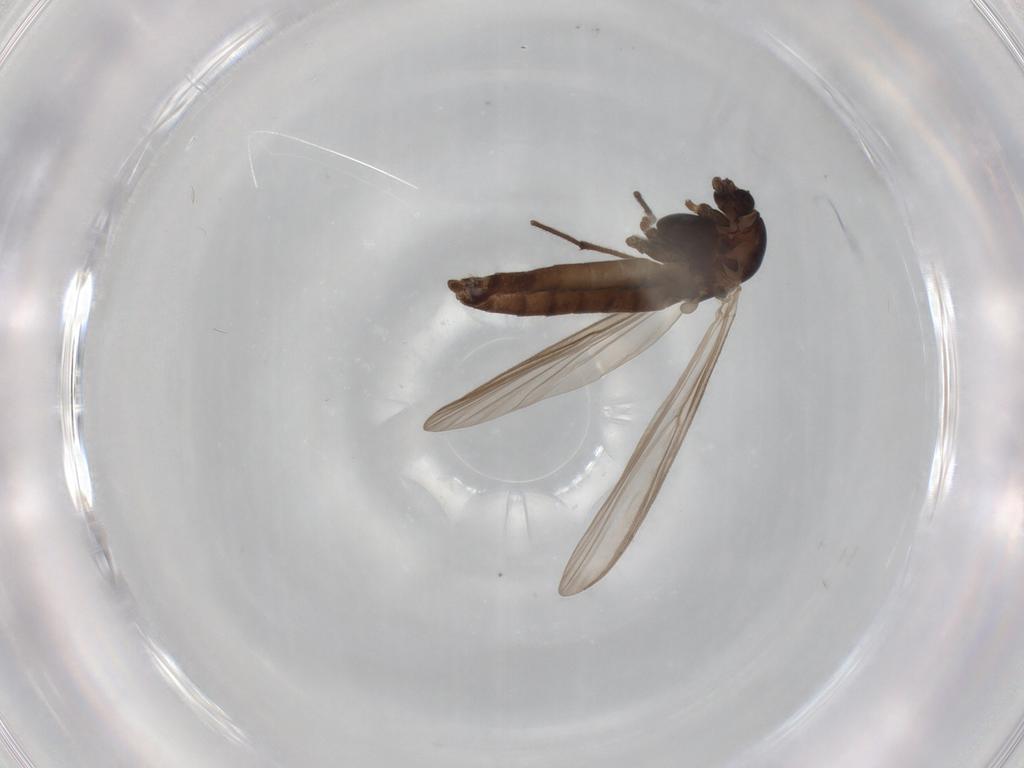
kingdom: Animalia
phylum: Arthropoda
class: Insecta
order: Diptera
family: Chironomidae
